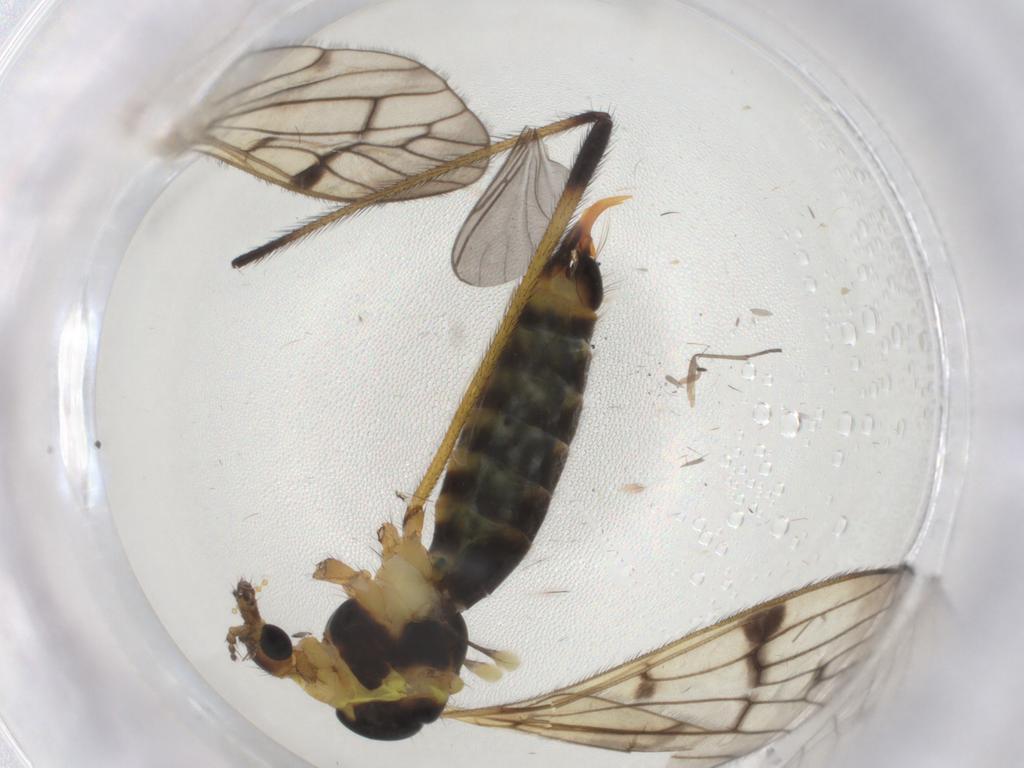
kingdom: Animalia
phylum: Arthropoda
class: Insecta
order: Diptera
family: Limoniidae
